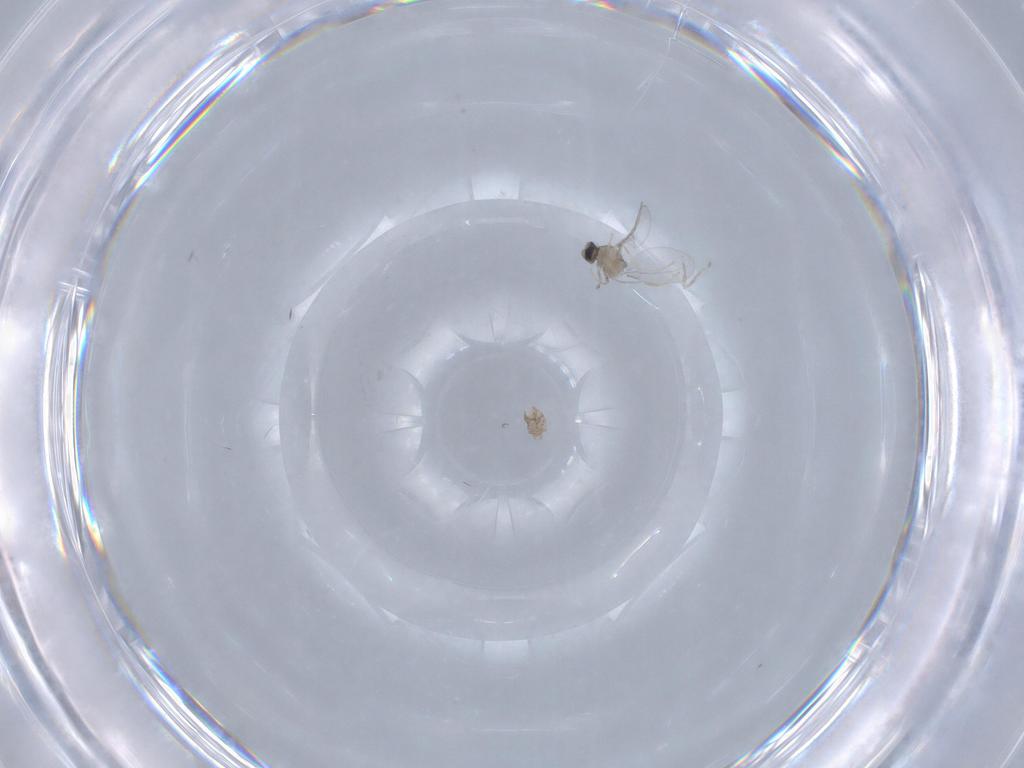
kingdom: Animalia
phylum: Arthropoda
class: Insecta
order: Diptera
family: Cecidomyiidae
